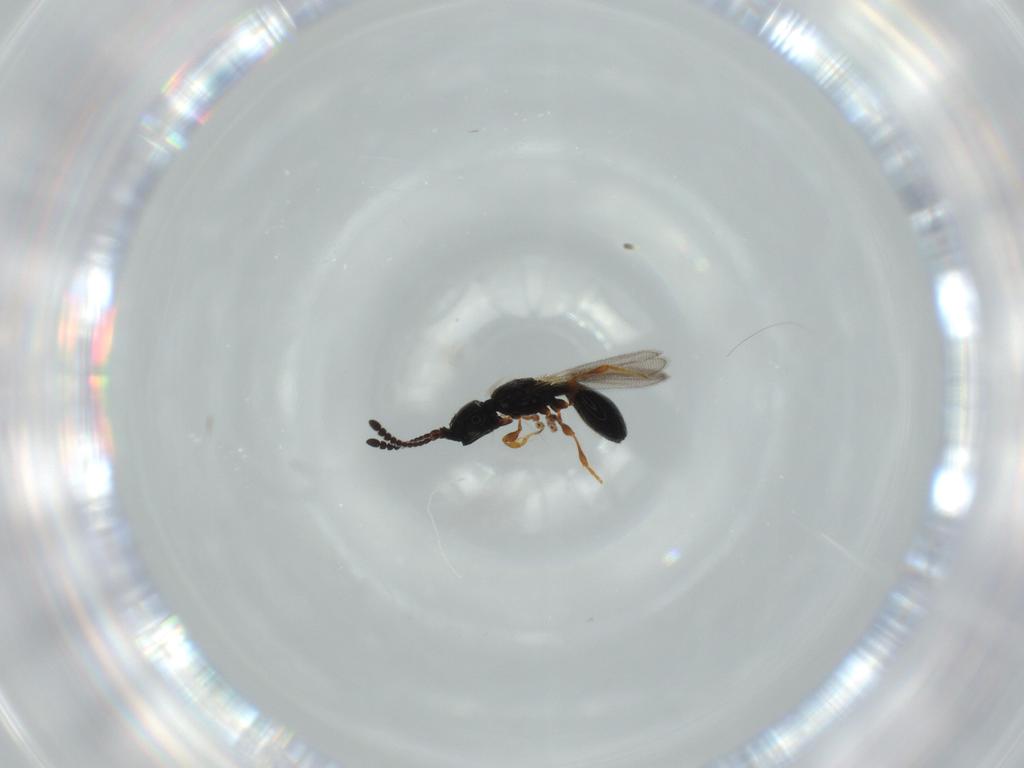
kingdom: Animalia
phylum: Arthropoda
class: Insecta
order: Hymenoptera
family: Diapriidae
